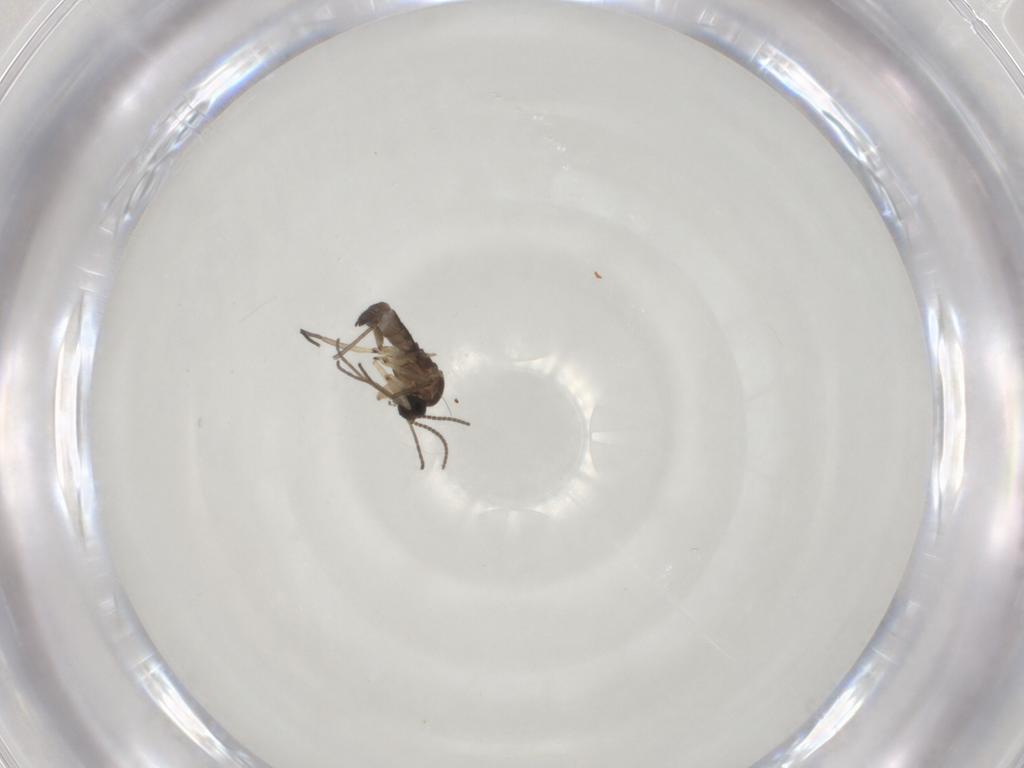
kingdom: Animalia
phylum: Arthropoda
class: Insecta
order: Diptera
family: Sciaridae
